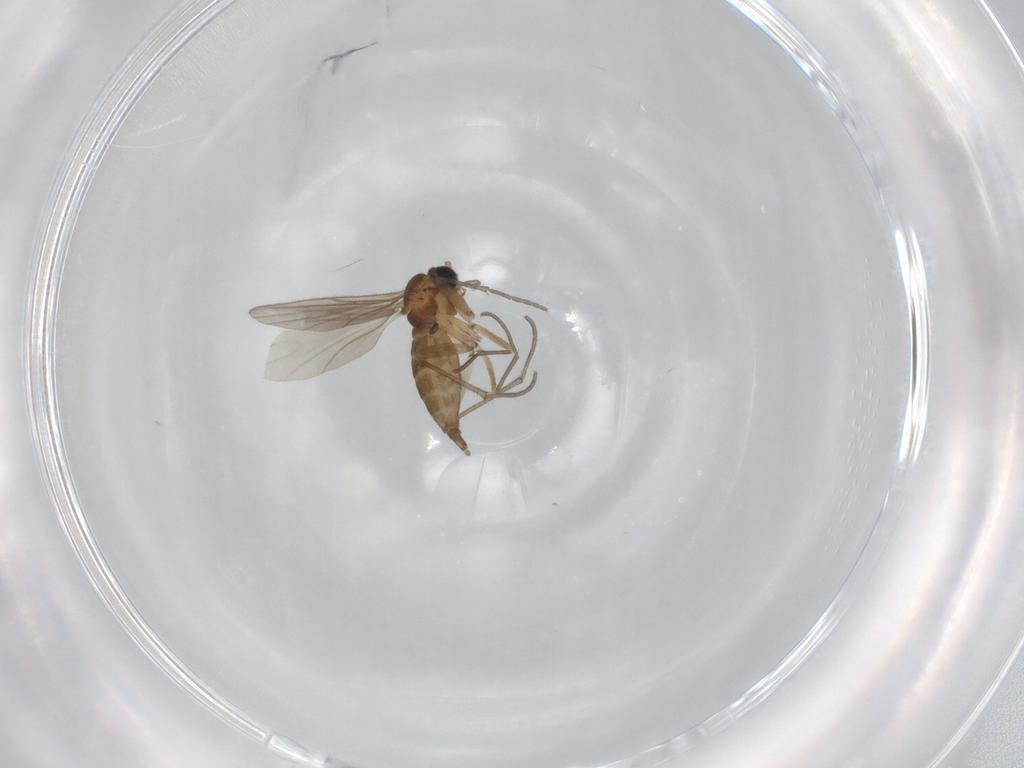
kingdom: Animalia
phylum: Arthropoda
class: Insecta
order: Diptera
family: Sciaridae
